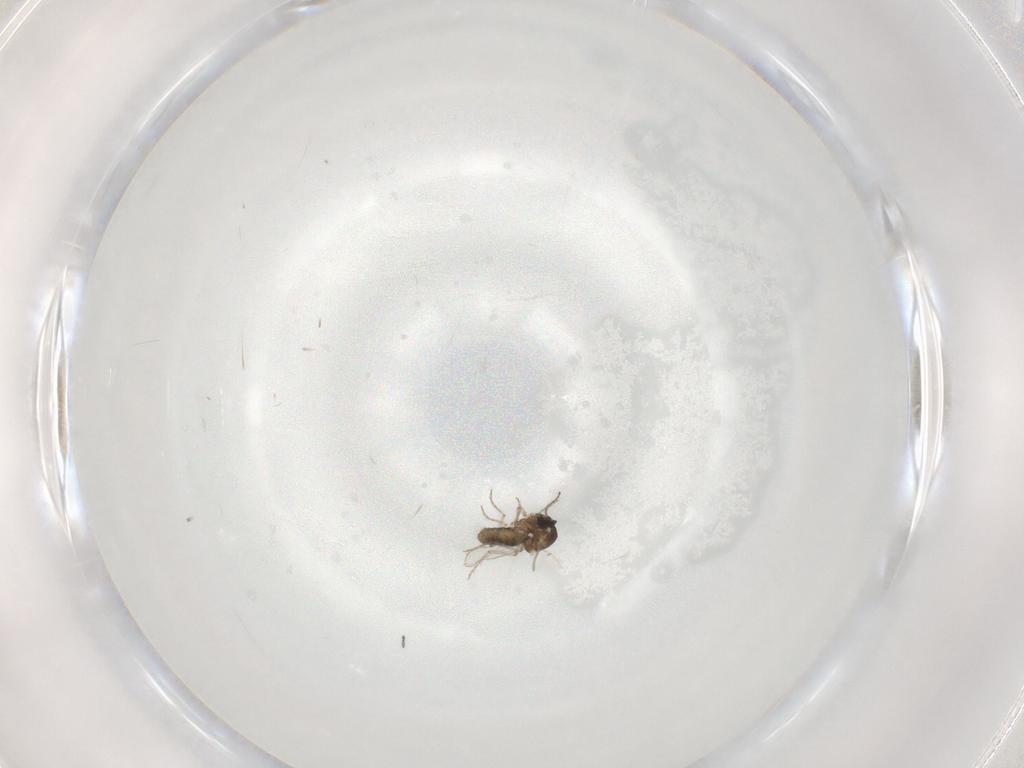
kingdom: Animalia
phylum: Arthropoda
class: Insecta
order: Diptera
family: Ceratopogonidae
